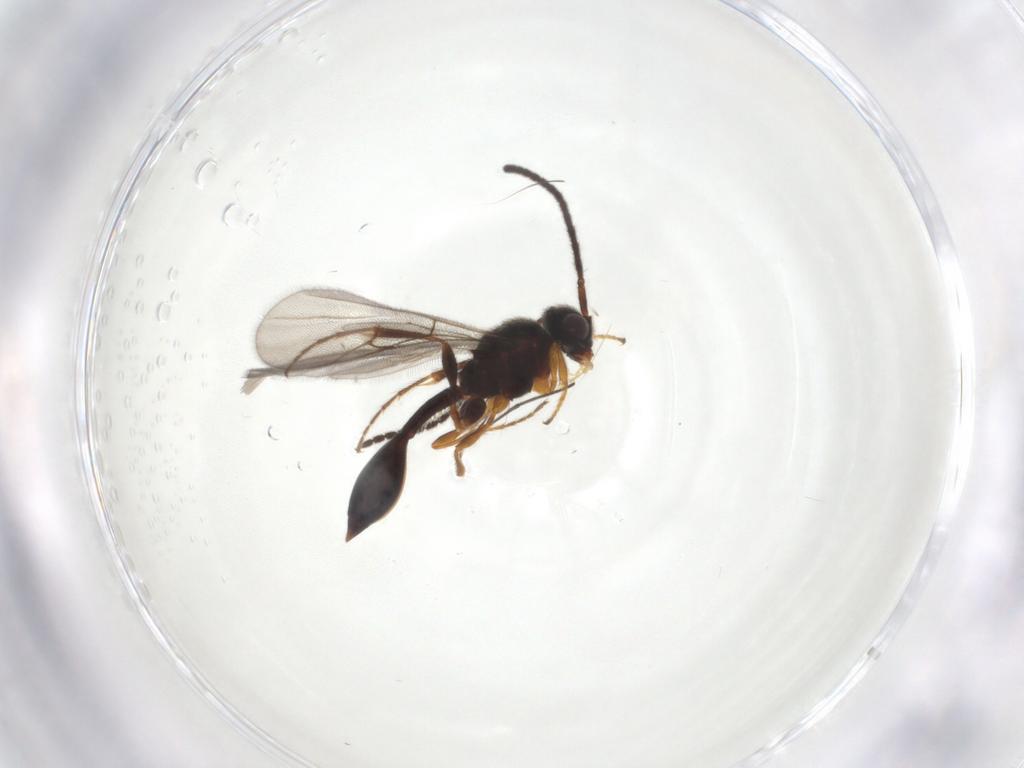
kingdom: Animalia
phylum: Arthropoda
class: Insecta
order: Hymenoptera
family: Diapriidae
